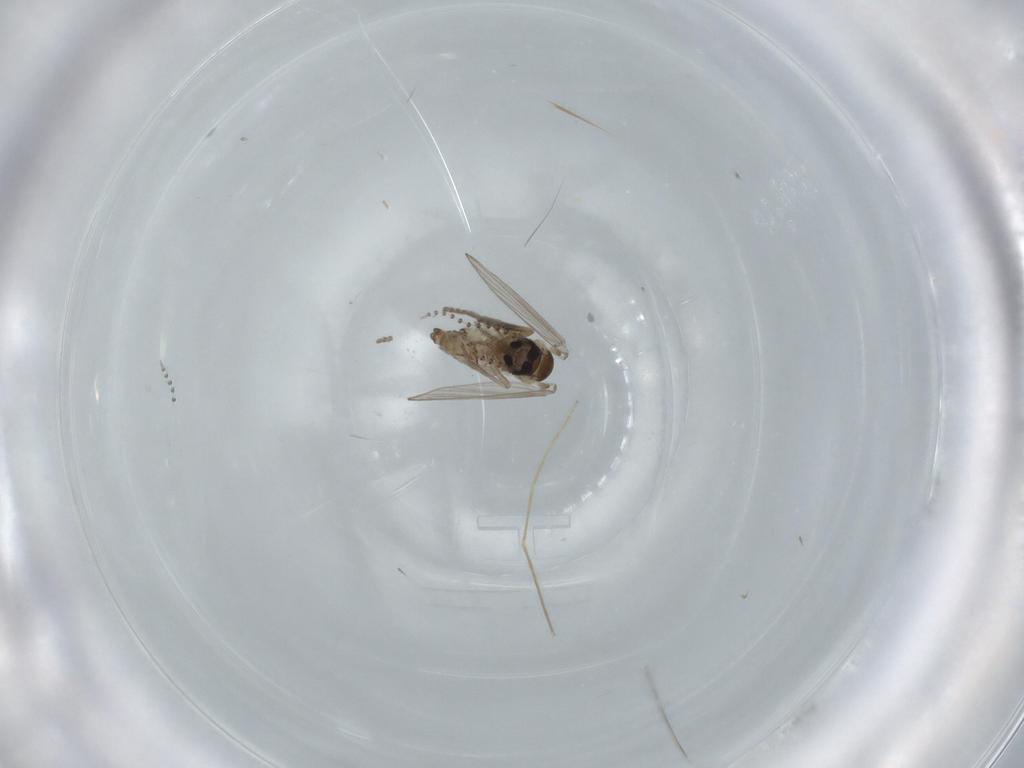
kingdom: Animalia
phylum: Arthropoda
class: Insecta
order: Diptera
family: Psychodidae
